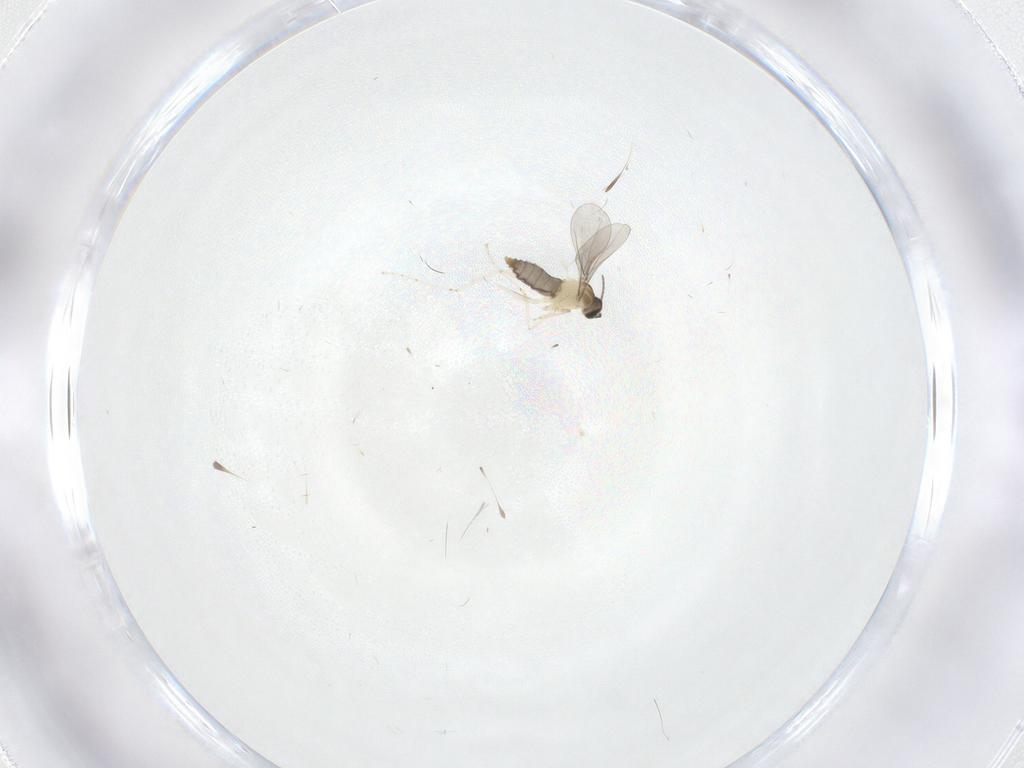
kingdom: Animalia
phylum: Arthropoda
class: Insecta
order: Diptera
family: Cecidomyiidae
